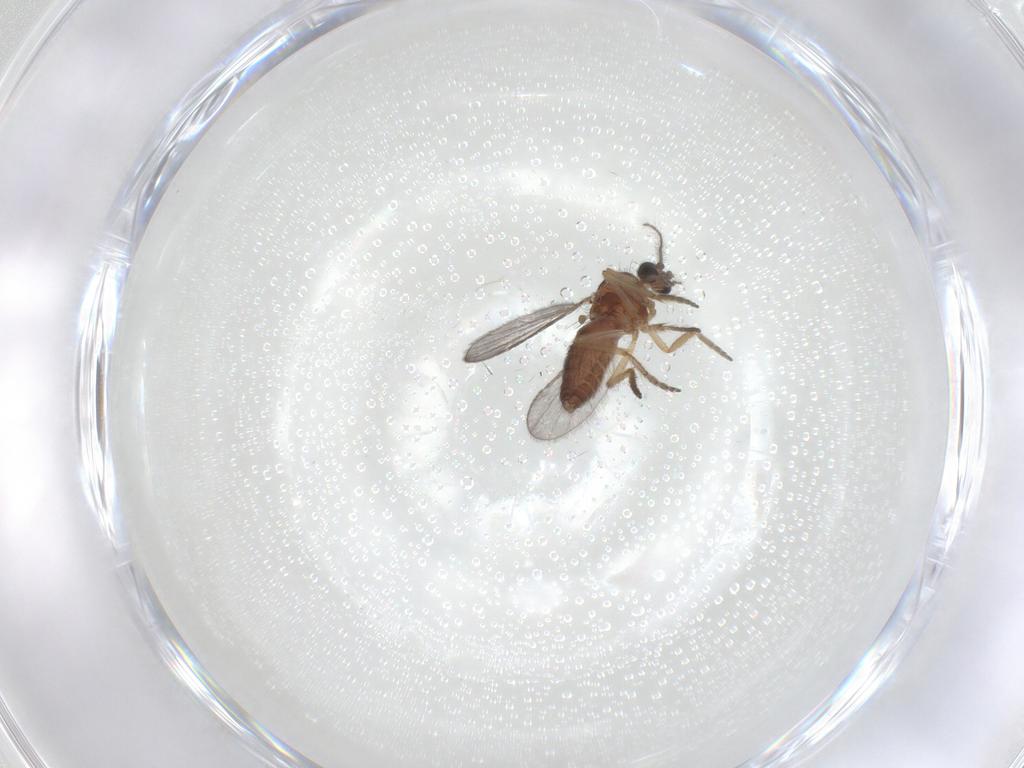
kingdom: Animalia
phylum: Arthropoda
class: Insecta
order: Diptera
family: Ceratopogonidae
